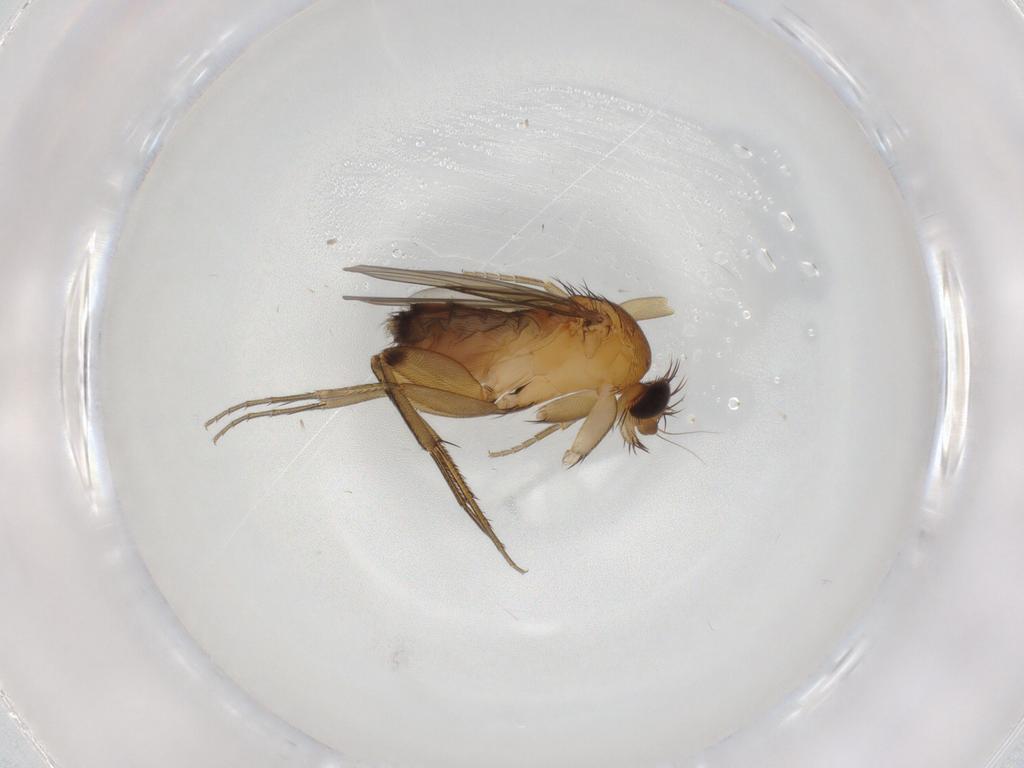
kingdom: Animalia
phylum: Arthropoda
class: Insecta
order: Diptera
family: Phoridae
